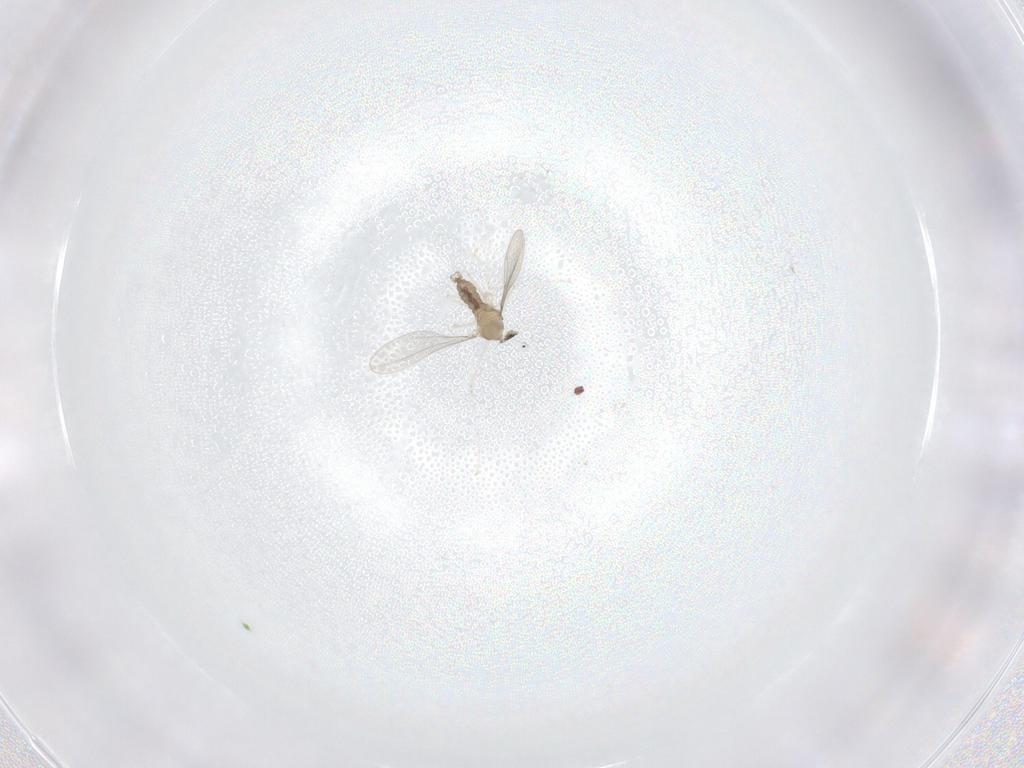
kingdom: Animalia
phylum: Arthropoda
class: Insecta
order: Diptera
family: Cecidomyiidae
